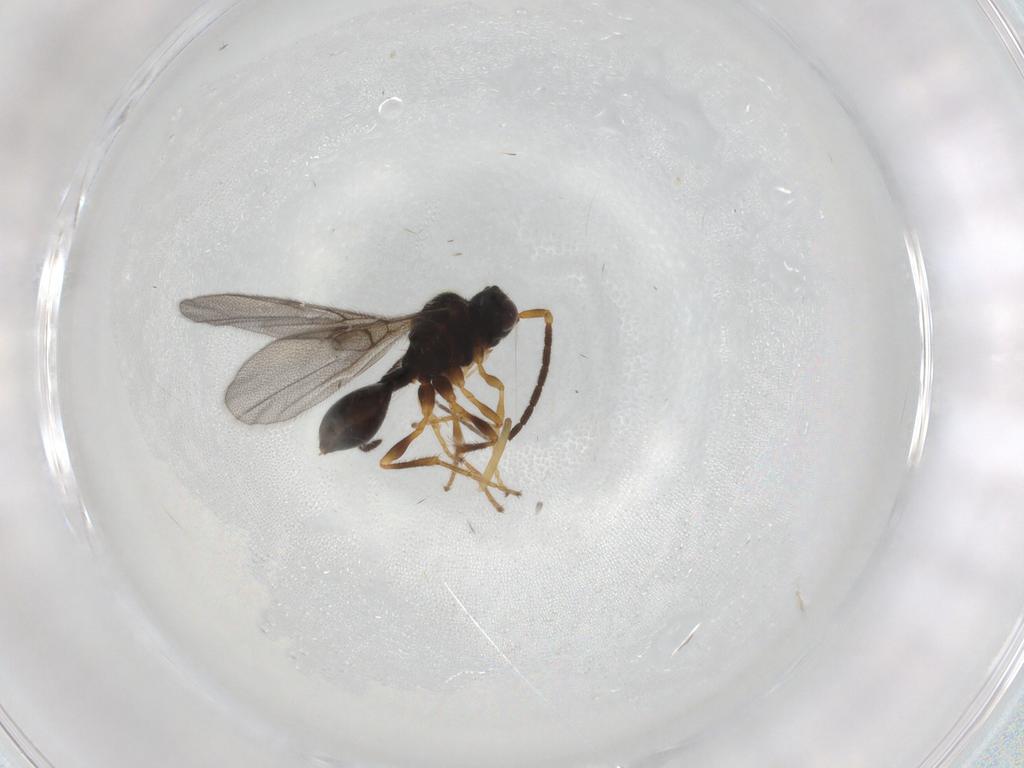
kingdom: Animalia
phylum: Arthropoda
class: Insecta
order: Hymenoptera
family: Diapriidae
